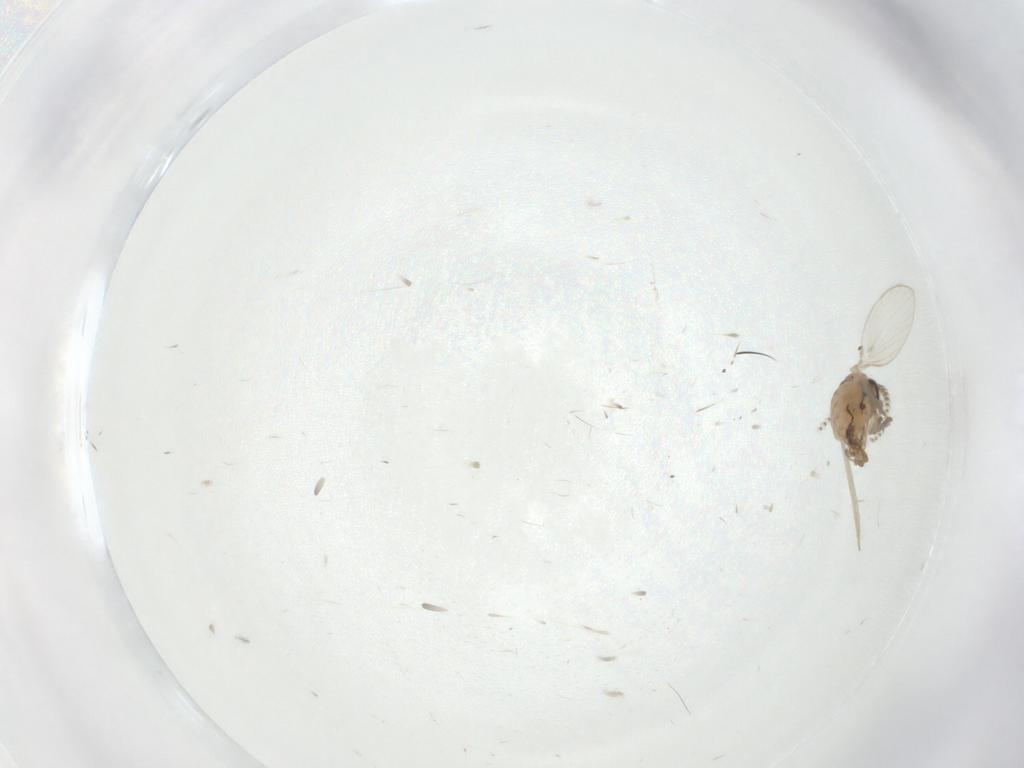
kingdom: Animalia
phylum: Arthropoda
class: Insecta
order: Diptera
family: Psychodidae
